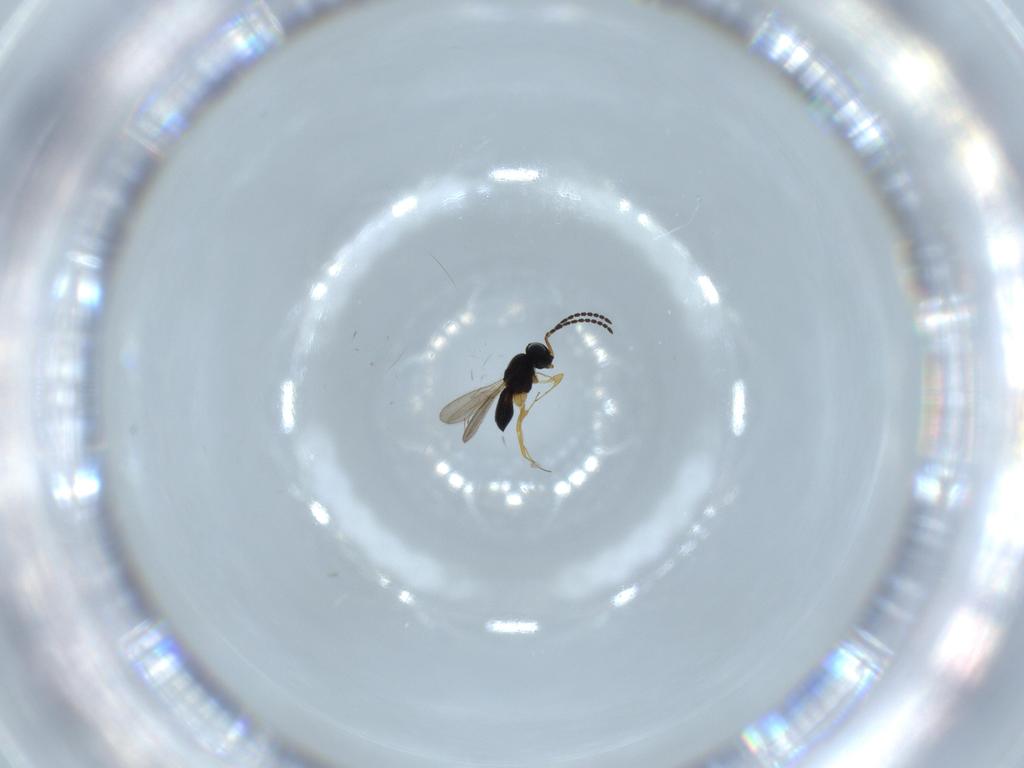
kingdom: Animalia
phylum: Arthropoda
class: Insecta
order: Hymenoptera
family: Scelionidae
